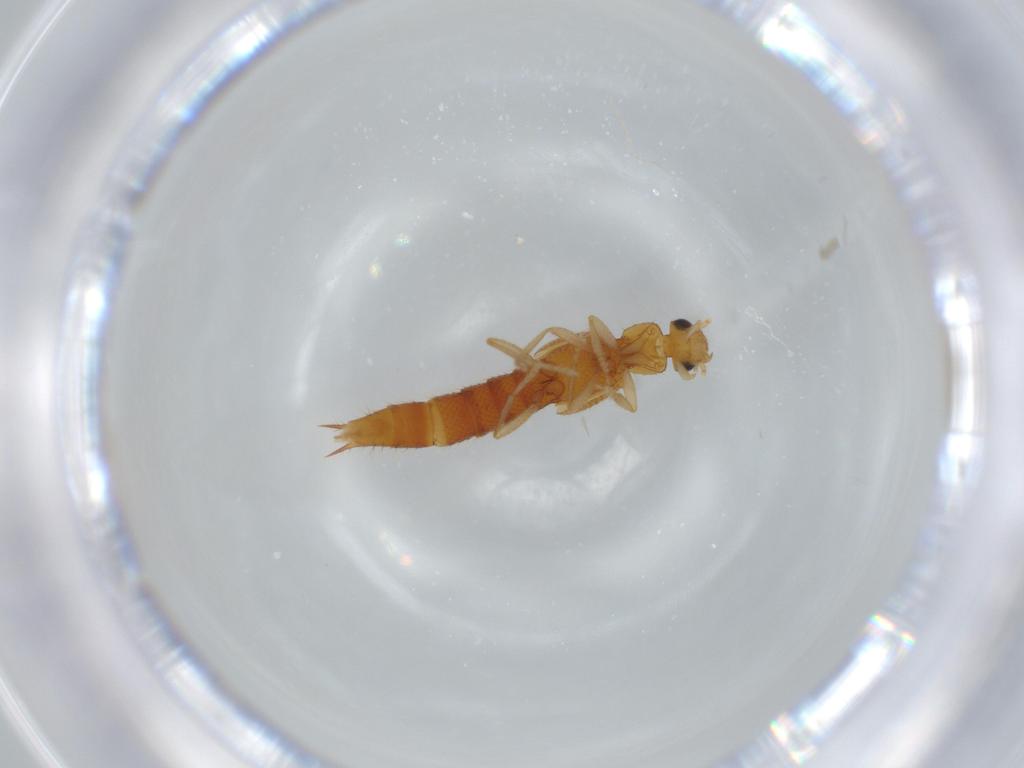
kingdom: Animalia
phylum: Arthropoda
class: Insecta
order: Coleoptera
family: Staphylinidae
